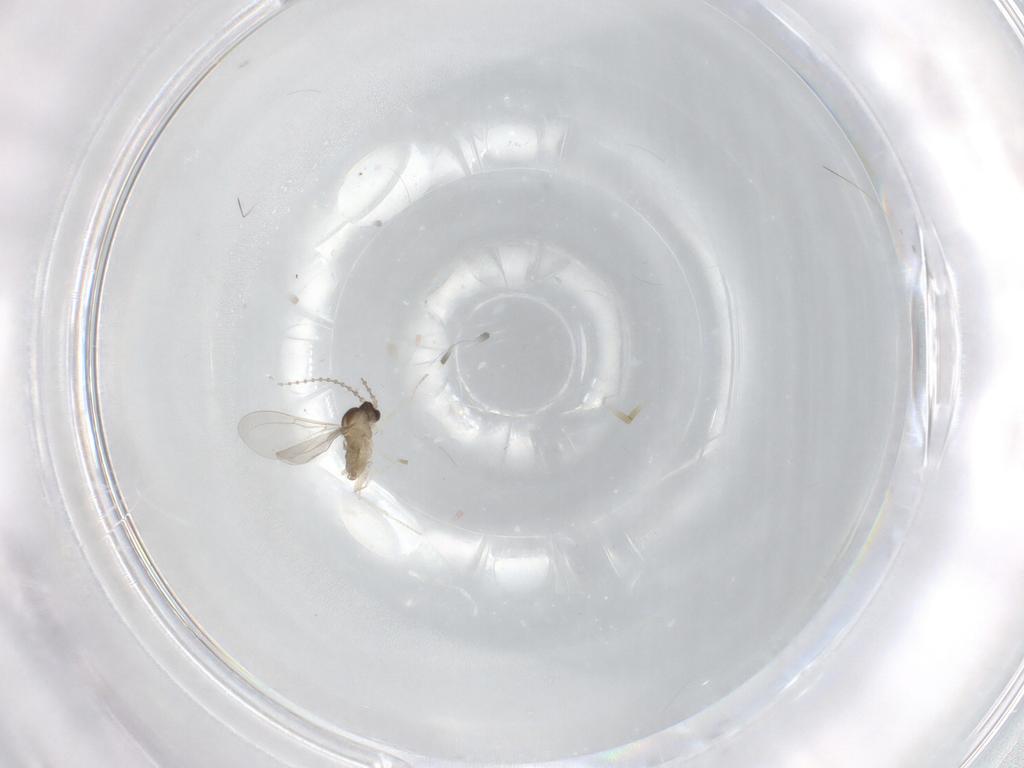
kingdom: Animalia
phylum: Arthropoda
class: Insecta
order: Diptera
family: Cecidomyiidae
